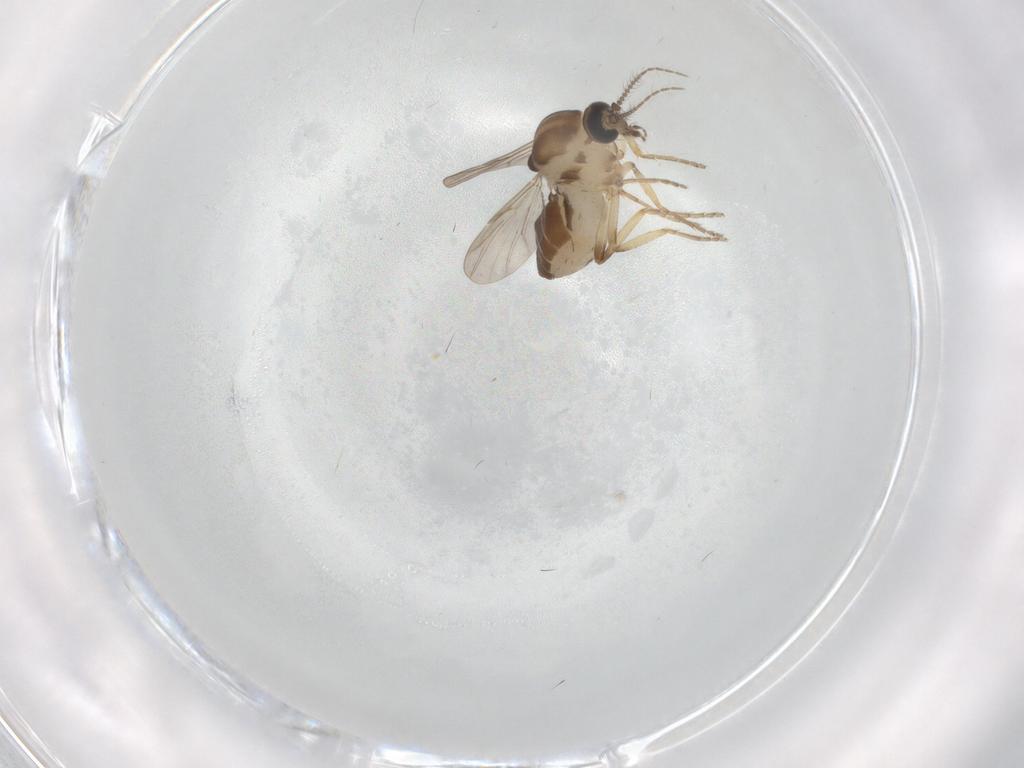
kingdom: Animalia
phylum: Arthropoda
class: Insecta
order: Diptera
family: Ceratopogonidae
